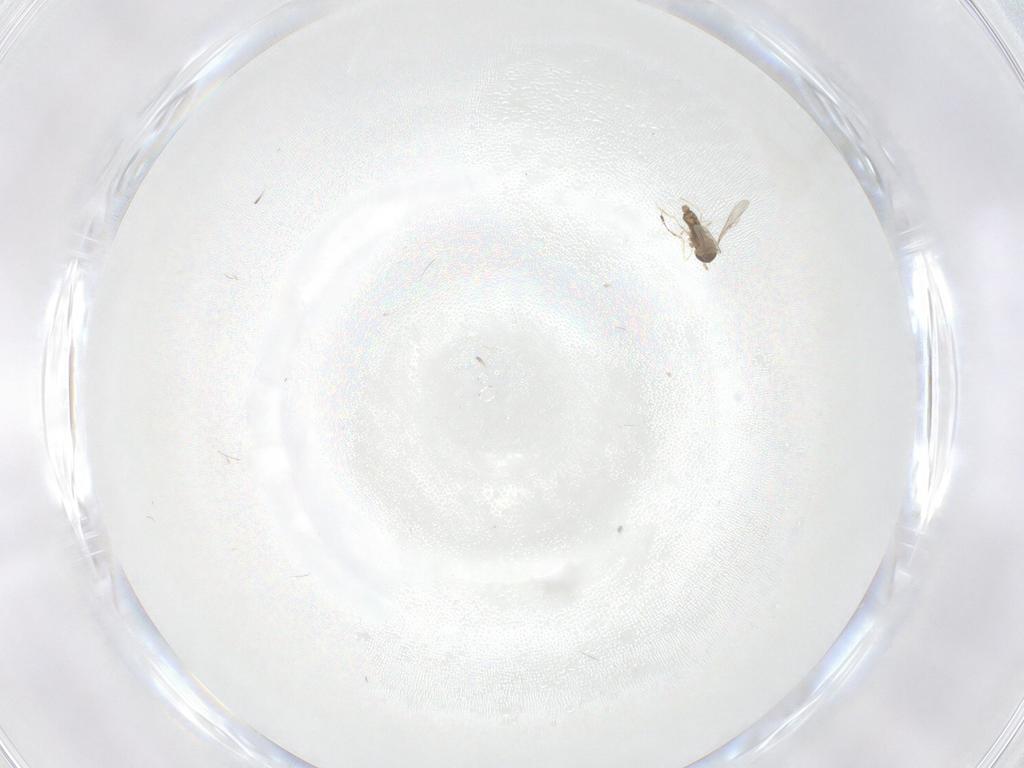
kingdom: Animalia
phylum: Arthropoda
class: Insecta
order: Diptera
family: Cecidomyiidae
